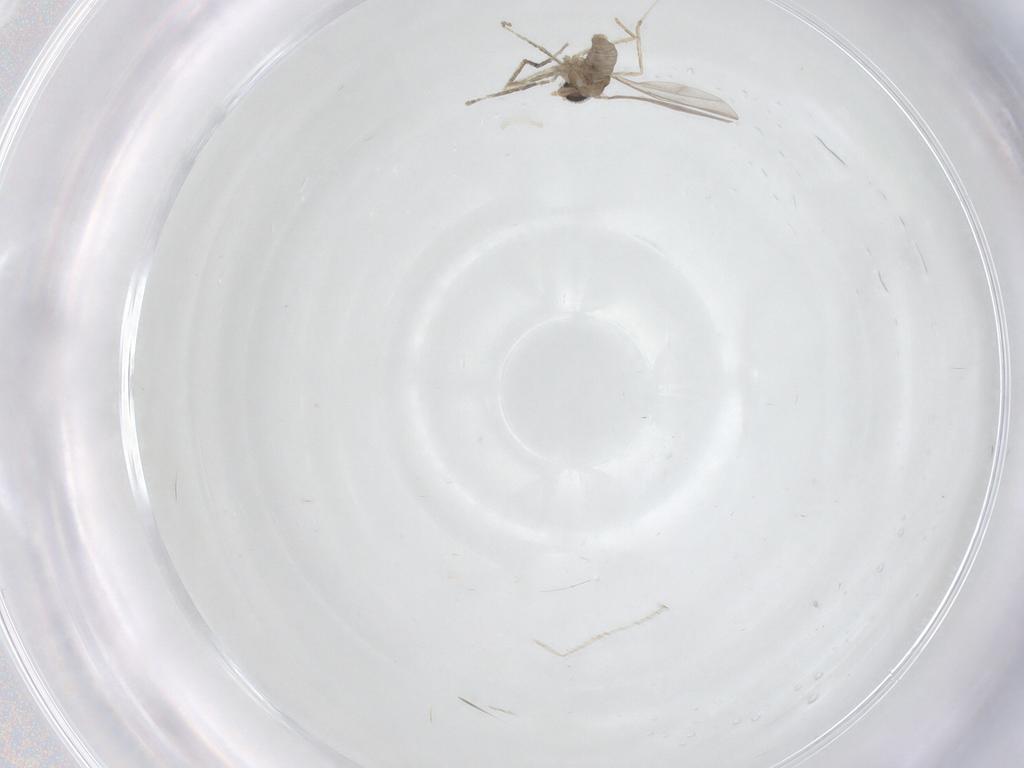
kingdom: Animalia
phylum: Arthropoda
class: Insecta
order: Diptera
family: Cecidomyiidae
